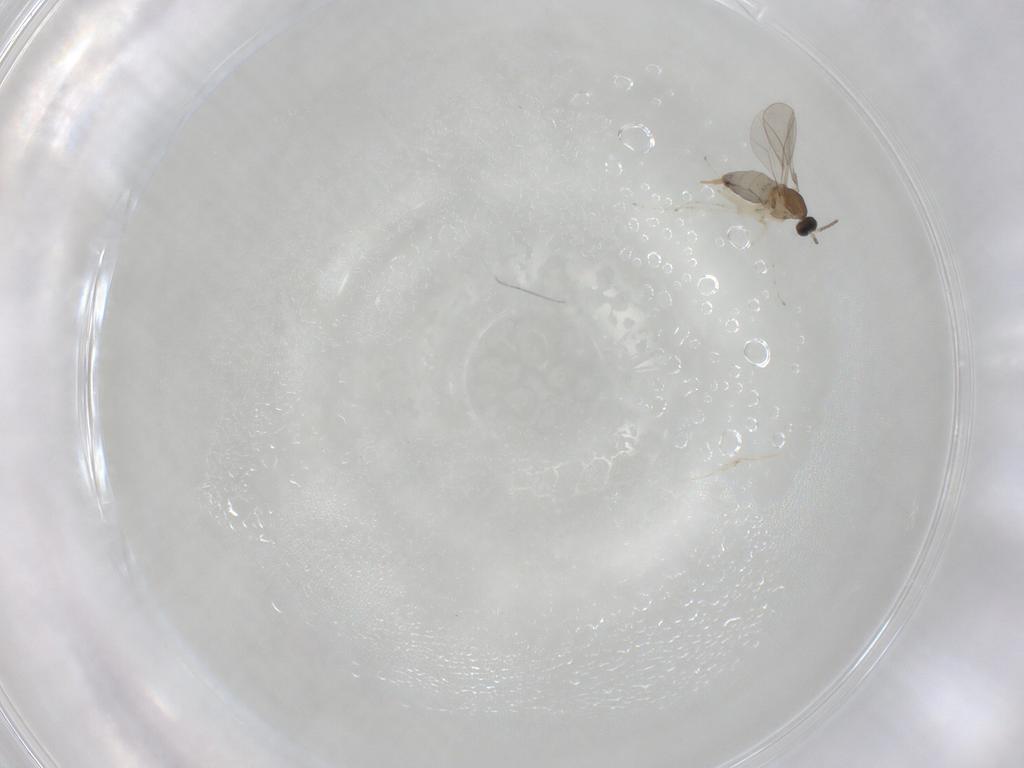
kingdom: Animalia
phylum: Arthropoda
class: Insecta
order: Diptera
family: Cecidomyiidae
